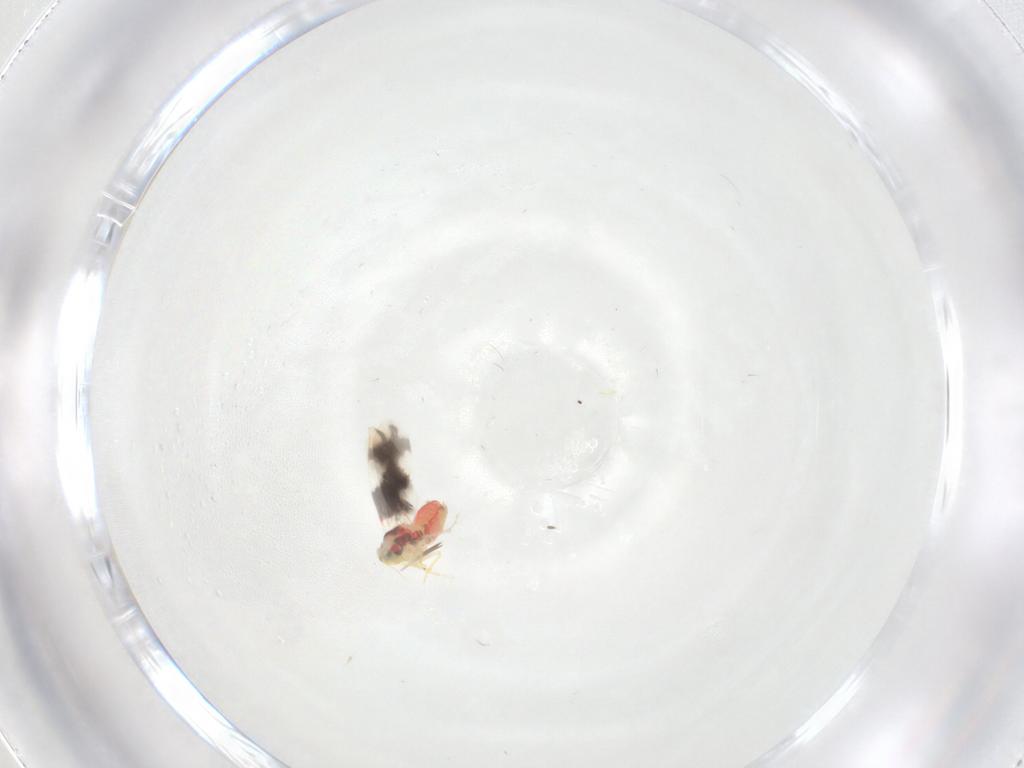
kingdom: Animalia
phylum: Arthropoda
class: Insecta
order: Hemiptera
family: Aleyrodidae
